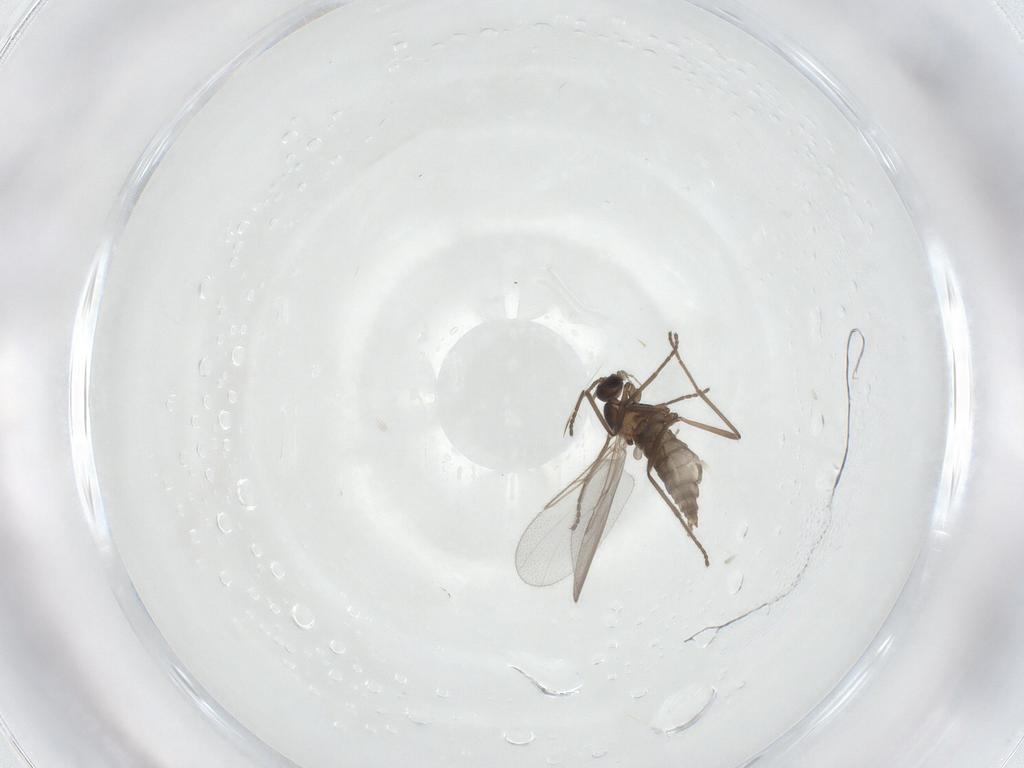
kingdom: Animalia
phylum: Arthropoda
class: Insecta
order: Diptera
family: Cecidomyiidae
